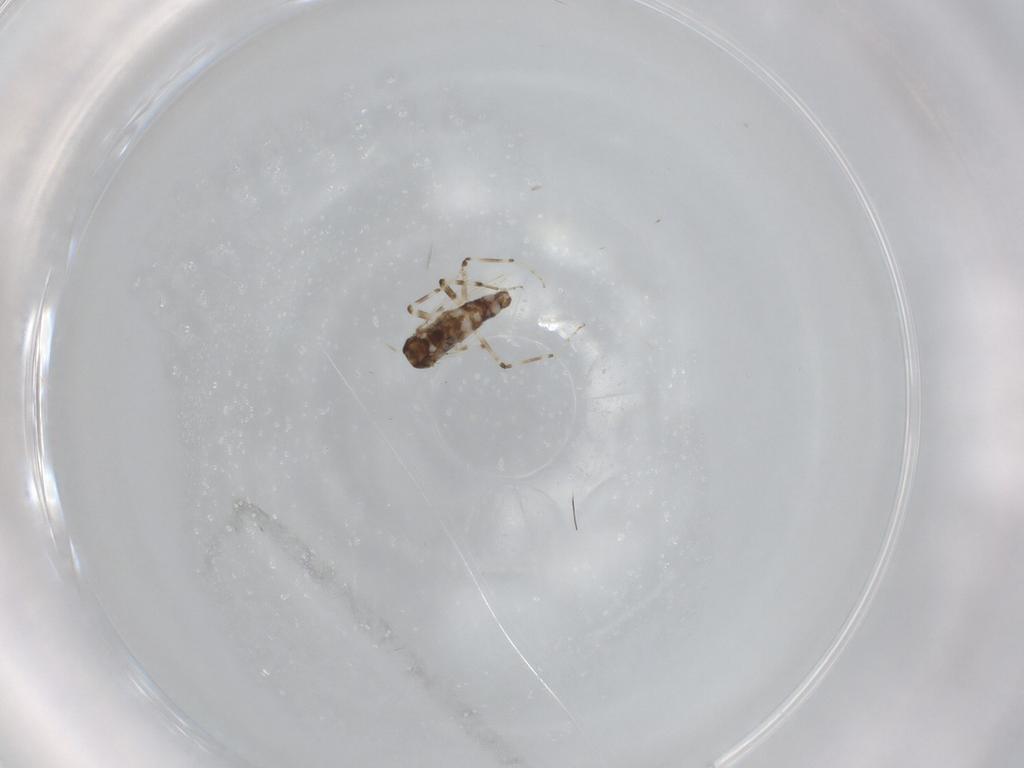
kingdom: Animalia
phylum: Arthropoda
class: Insecta
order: Diptera
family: Ceratopogonidae
